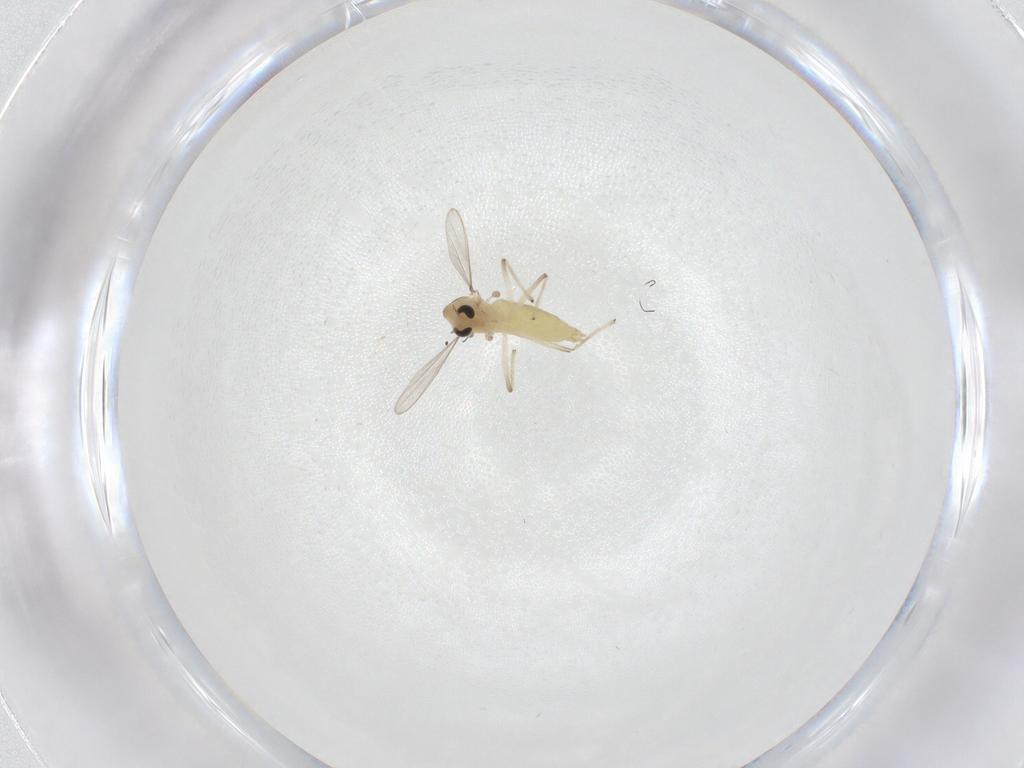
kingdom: Animalia
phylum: Arthropoda
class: Insecta
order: Diptera
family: Chironomidae
